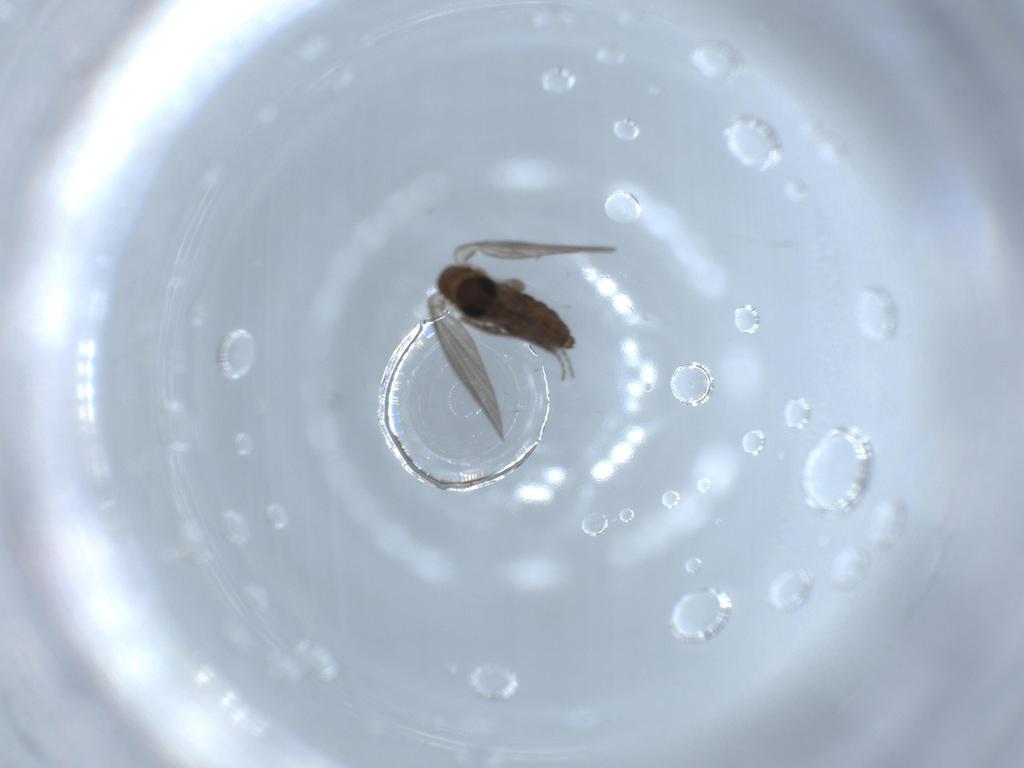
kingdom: Animalia
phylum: Arthropoda
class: Insecta
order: Diptera
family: Psychodidae
